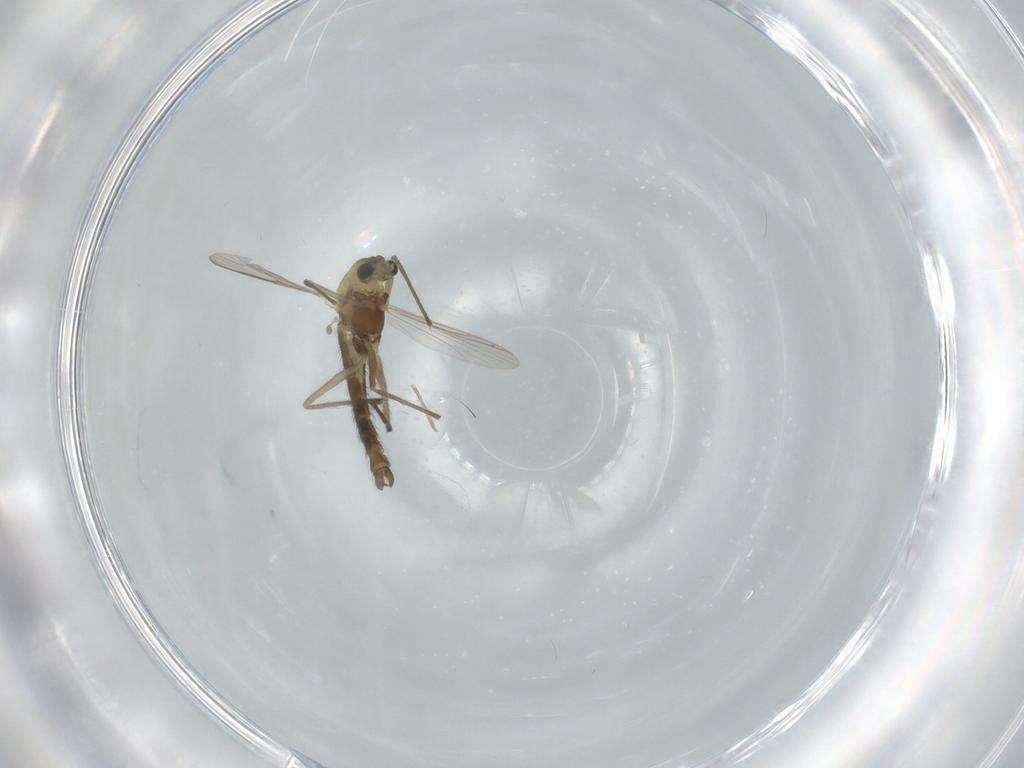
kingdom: Animalia
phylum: Arthropoda
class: Insecta
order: Diptera
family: Chironomidae
